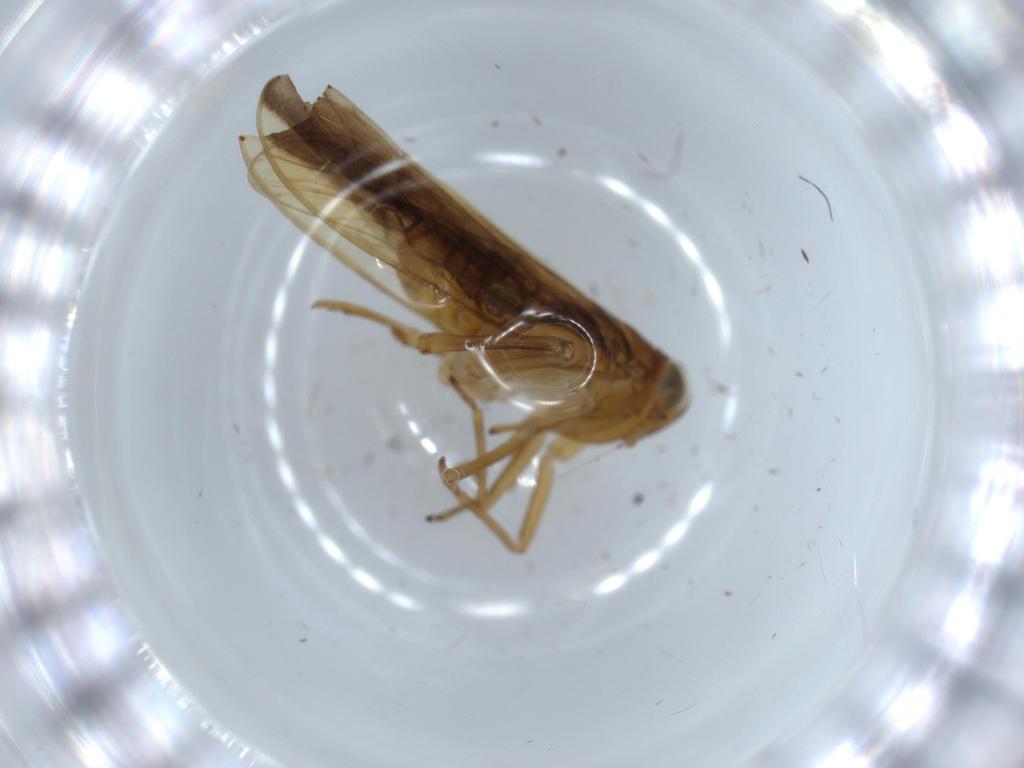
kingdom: Animalia
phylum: Arthropoda
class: Insecta
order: Hemiptera
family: Delphacidae
